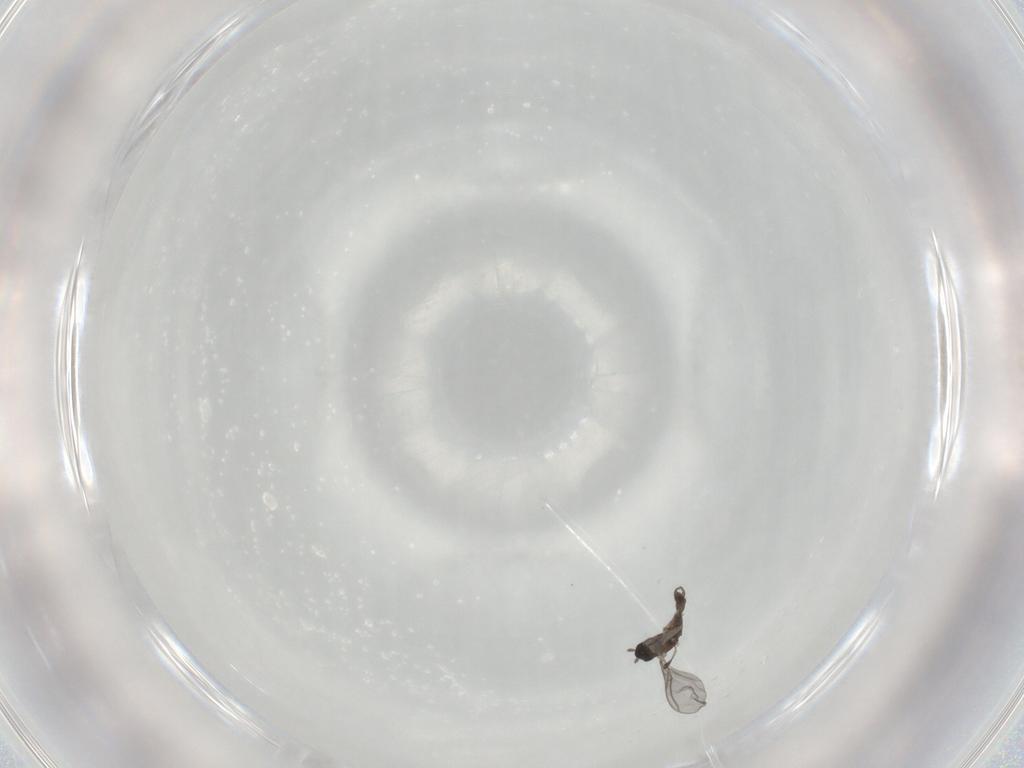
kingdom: Animalia
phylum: Arthropoda
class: Insecta
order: Diptera
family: Sciaridae
